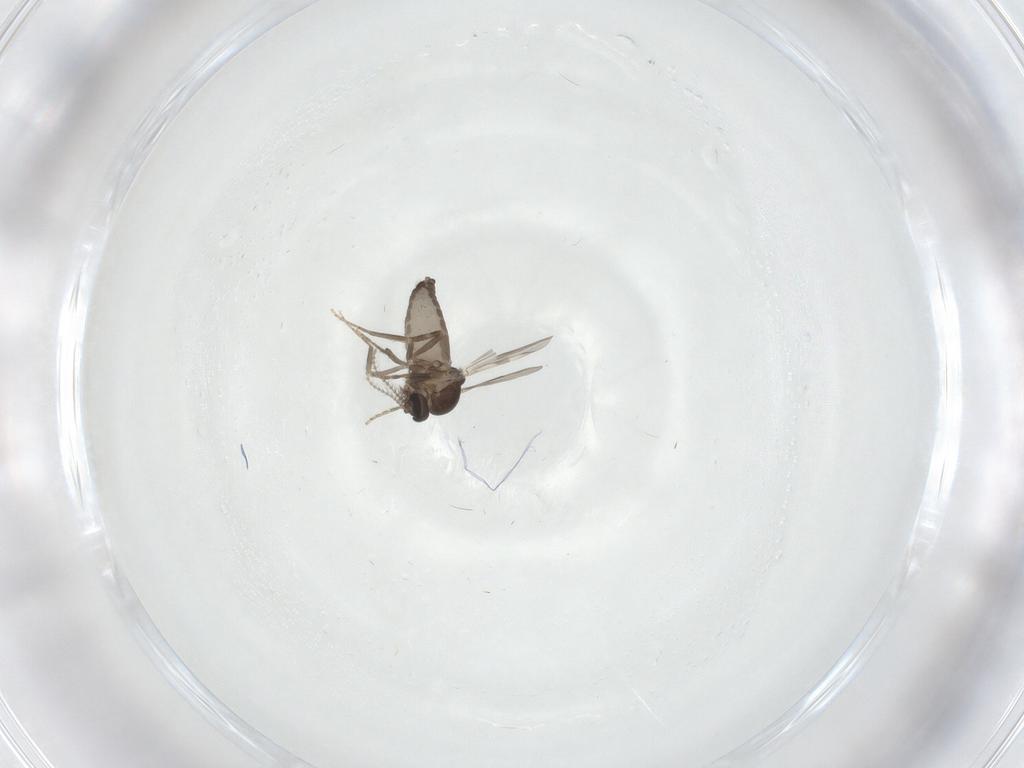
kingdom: Animalia
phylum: Arthropoda
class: Insecta
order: Diptera
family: Ceratopogonidae
